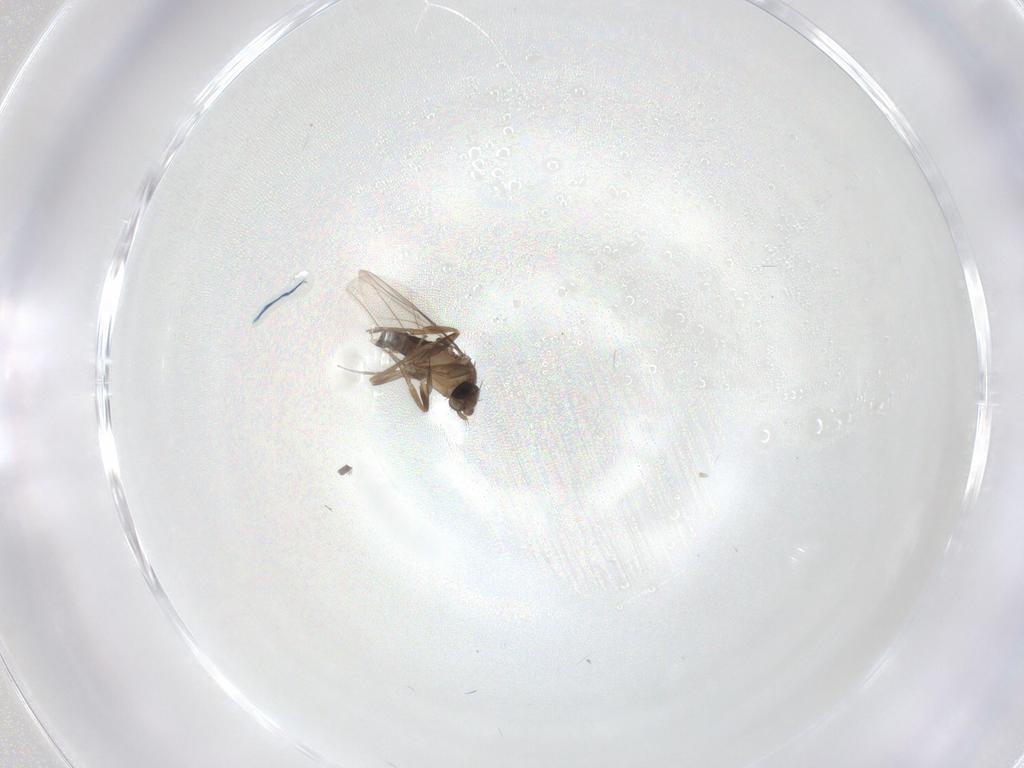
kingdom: Animalia
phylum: Arthropoda
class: Insecta
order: Diptera
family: Phoridae
